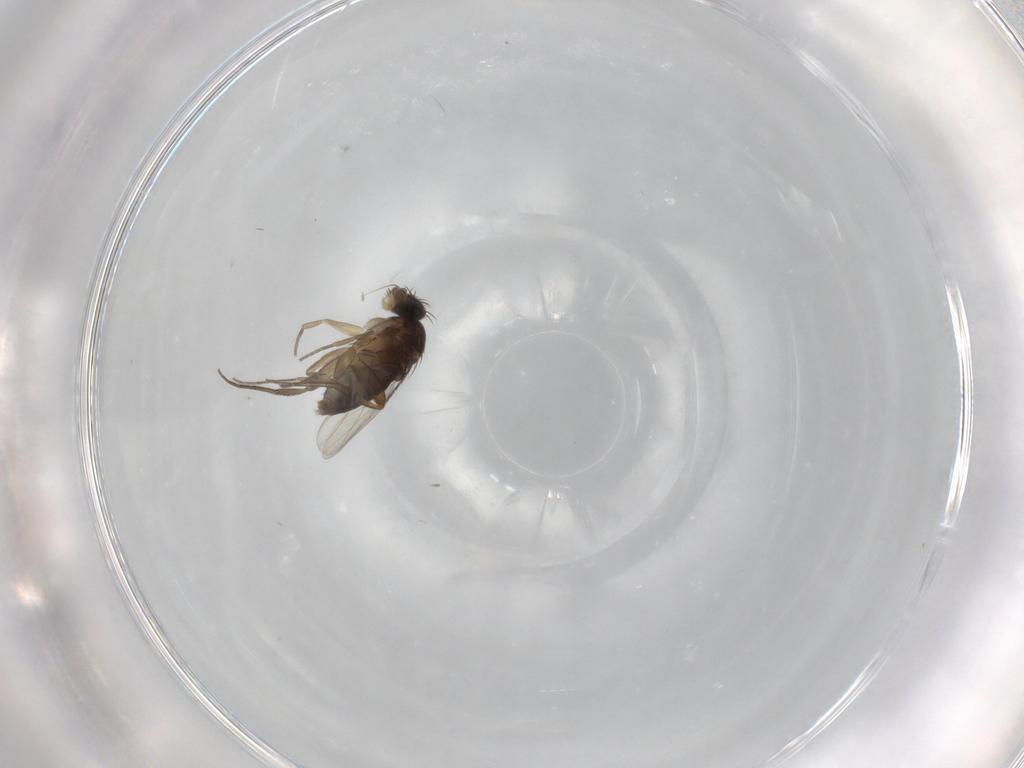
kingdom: Animalia
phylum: Arthropoda
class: Insecta
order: Diptera
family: Phoridae
